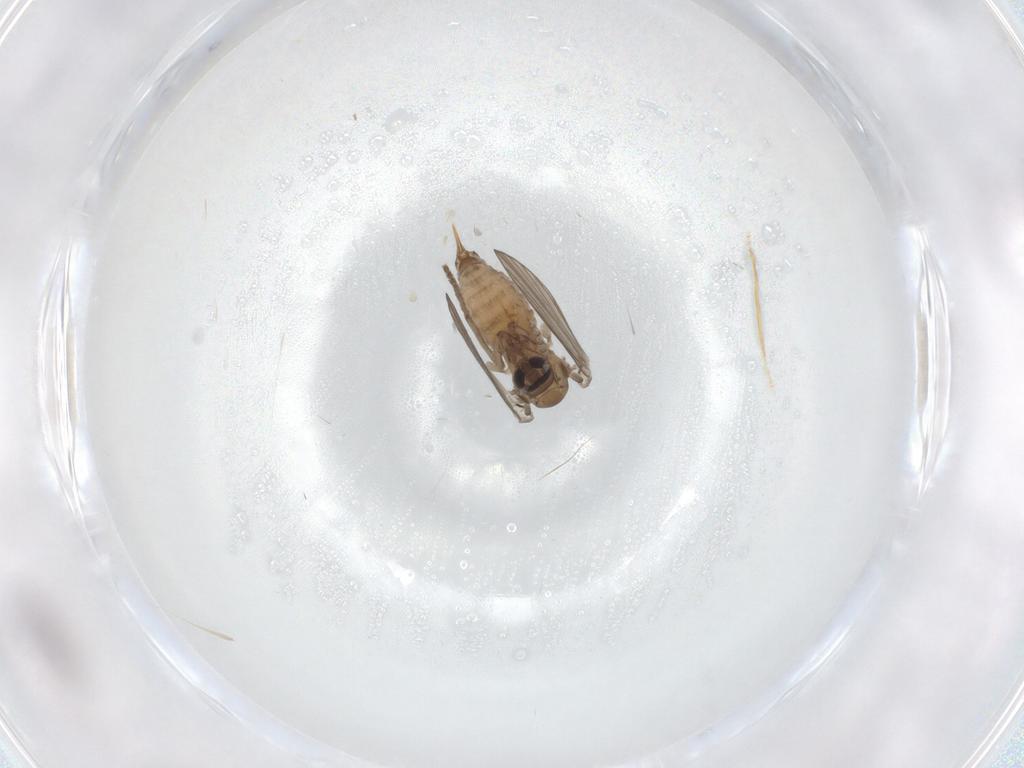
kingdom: Animalia
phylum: Arthropoda
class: Insecta
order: Diptera
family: Psychodidae
